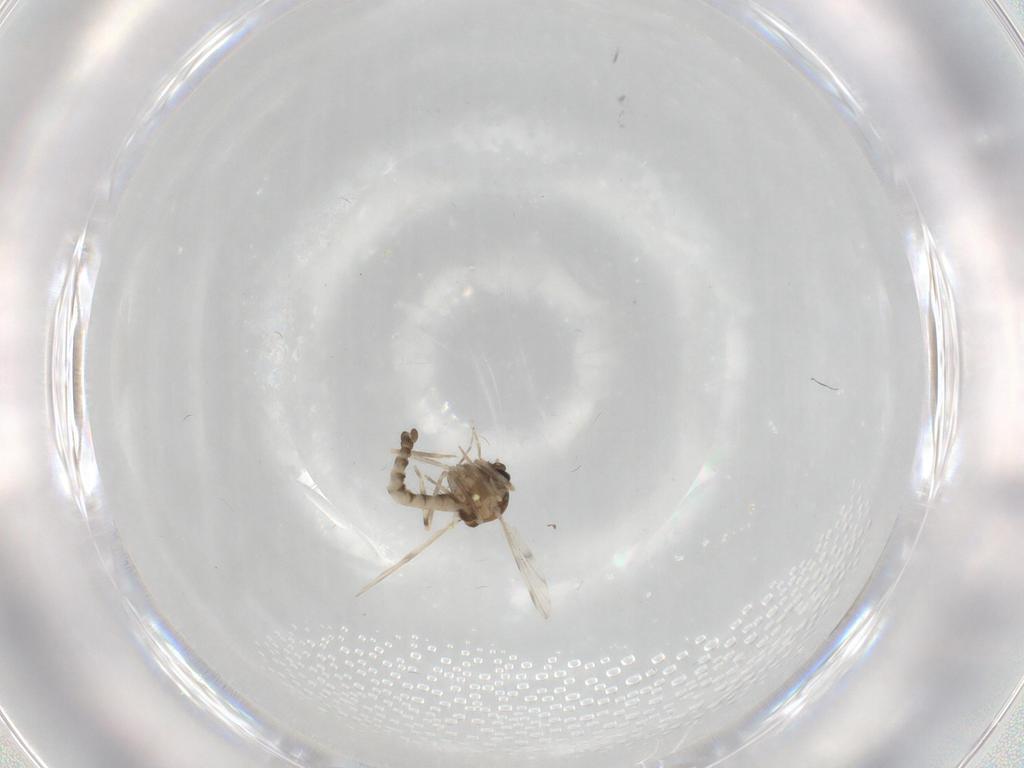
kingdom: Animalia
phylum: Arthropoda
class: Insecta
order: Diptera
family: Ceratopogonidae
